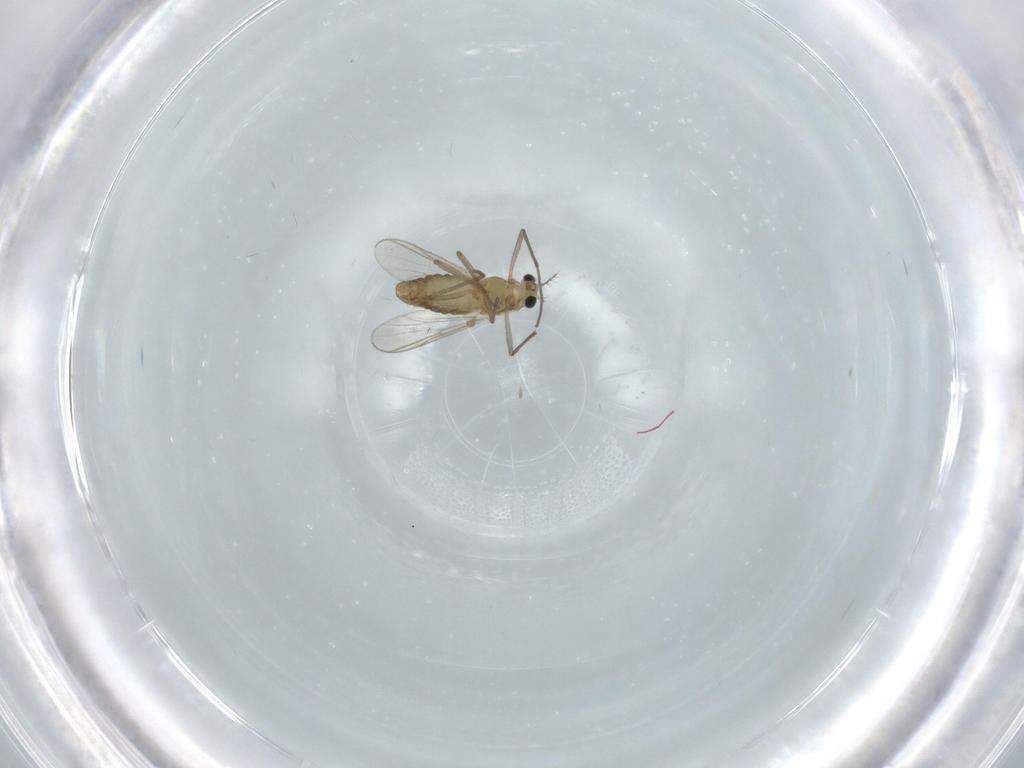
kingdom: Animalia
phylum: Arthropoda
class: Insecta
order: Diptera
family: Chironomidae
